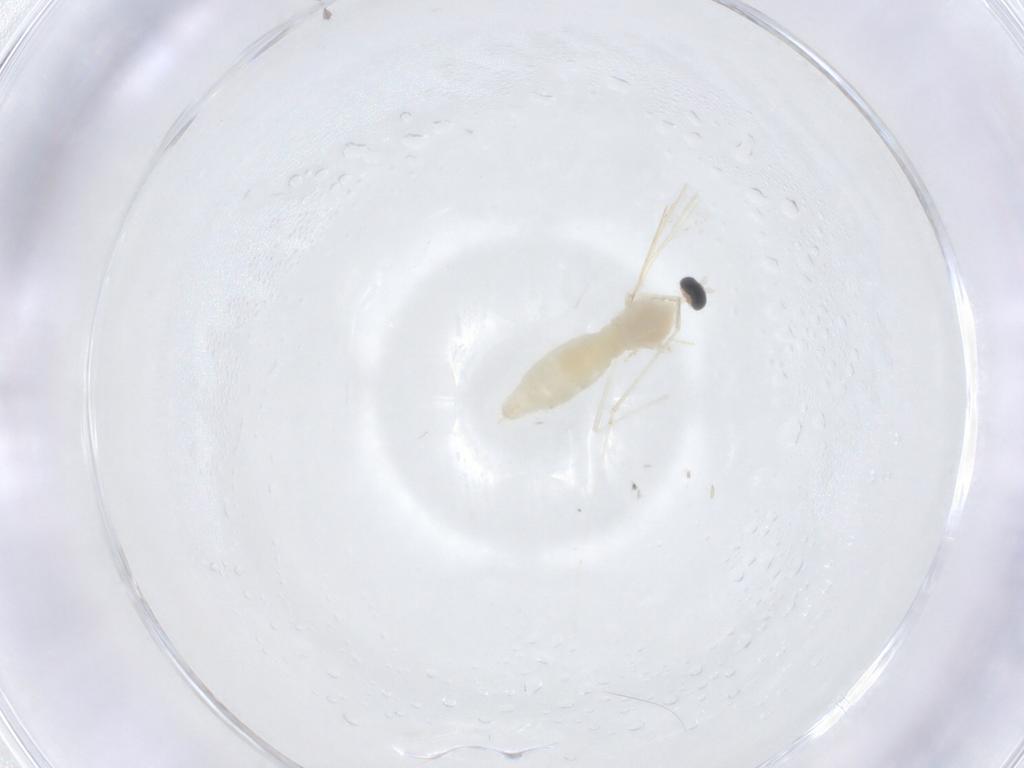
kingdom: Animalia
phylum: Arthropoda
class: Insecta
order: Diptera
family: Cecidomyiidae
